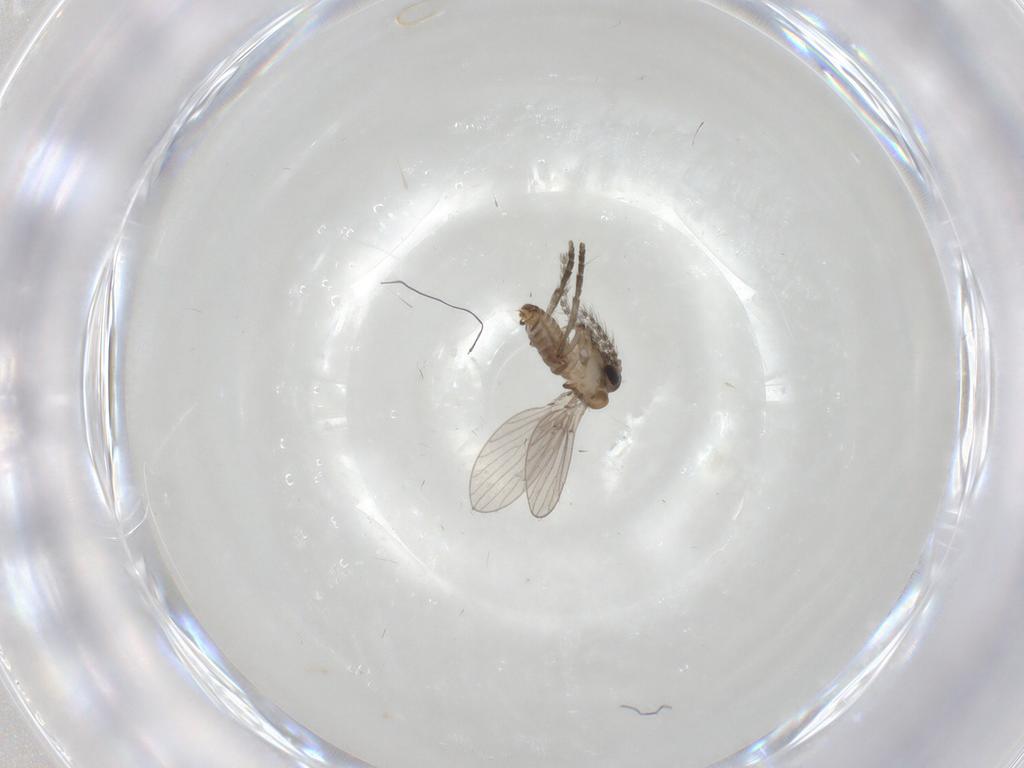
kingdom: Animalia
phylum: Arthropoda
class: Insecta
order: Diptera
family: Psychodidae
